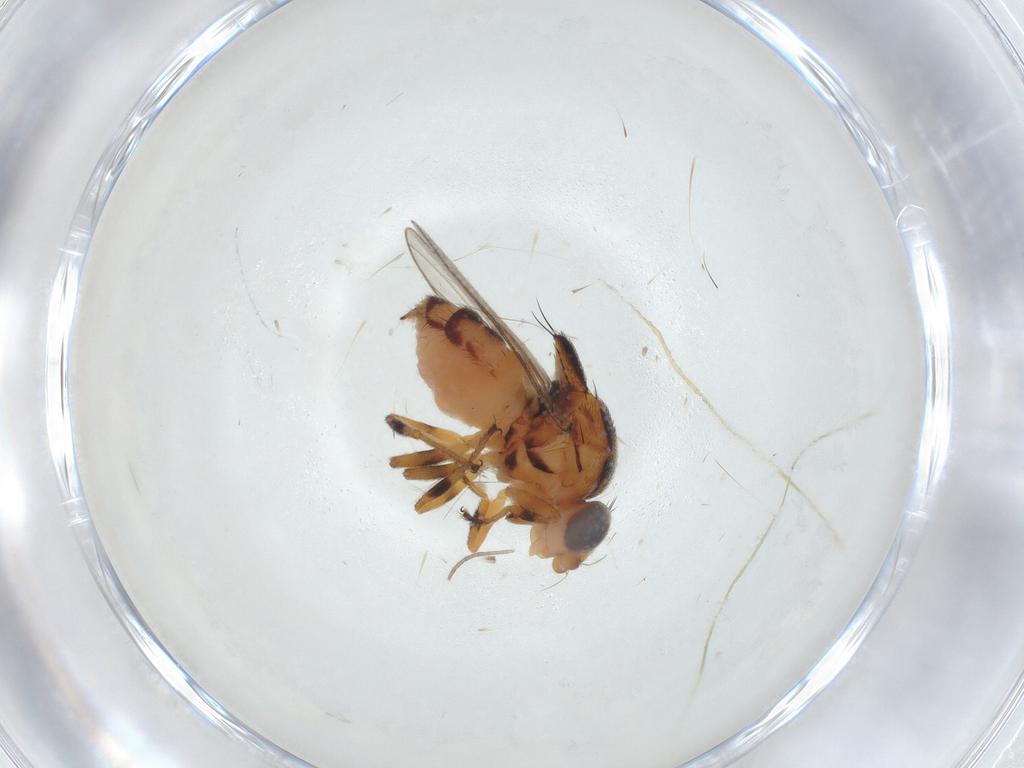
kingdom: Animalia
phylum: Arthropoda
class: Insecta
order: Diptera
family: Chloropidae
